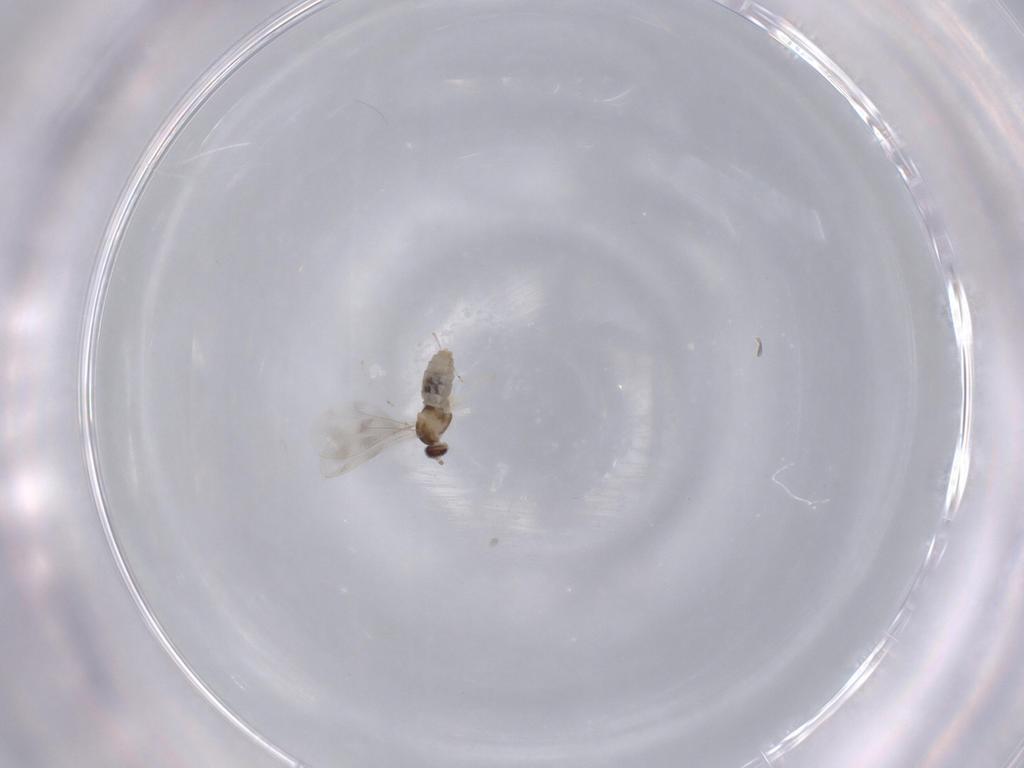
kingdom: Animalia
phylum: Arthropoda
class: Insecta
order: Diptera
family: Cecidomyiidae
